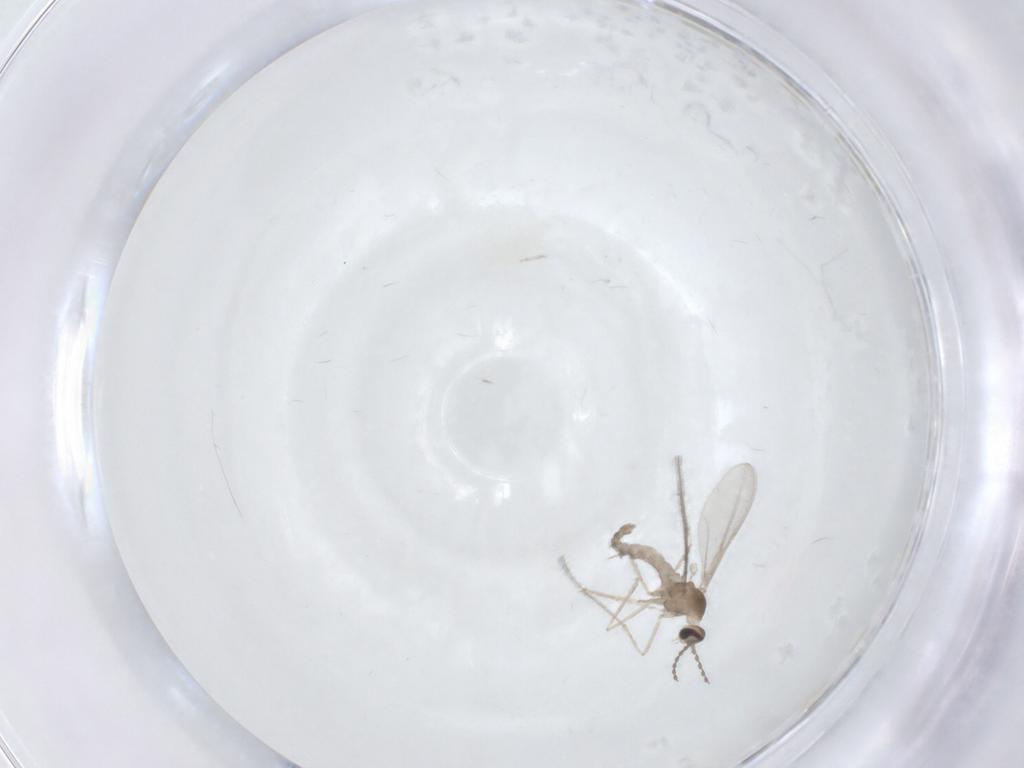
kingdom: Animalia
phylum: Arthropoda
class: Insecta
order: Diptera
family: Cecidomyiidae
